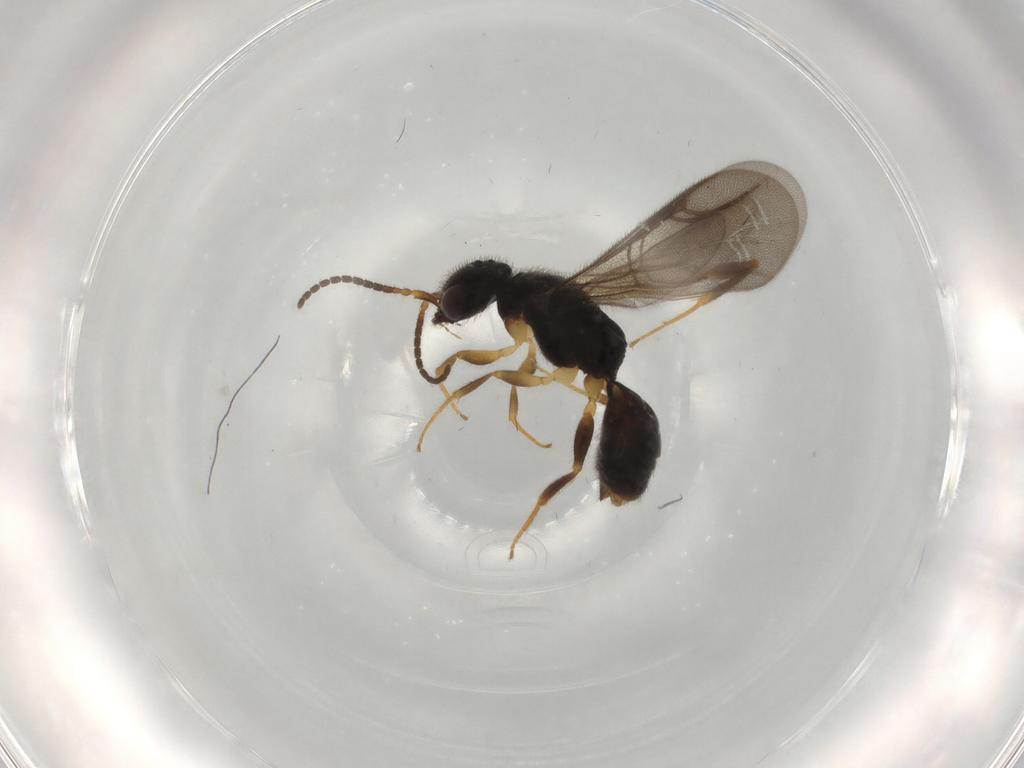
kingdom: Animalia
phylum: Arthropoda
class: Insecta
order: Hymenoptera
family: Bethylidae
